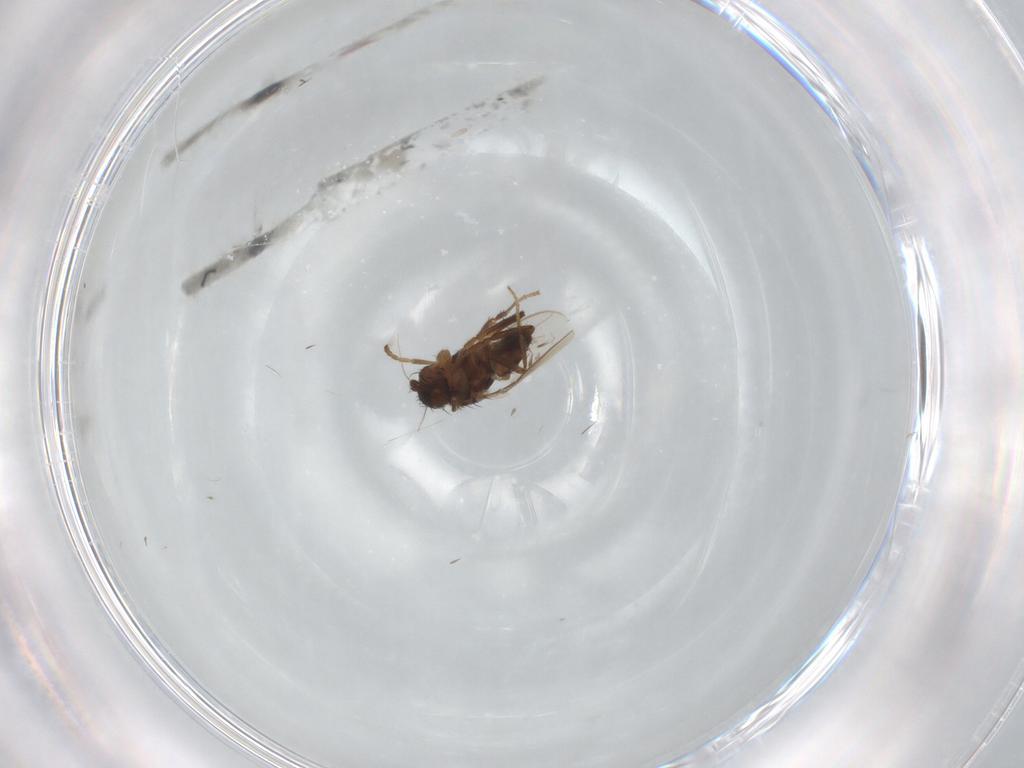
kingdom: Animalia
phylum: Arthropoda
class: Insecta
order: Diptera
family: Sphaeroceridae
